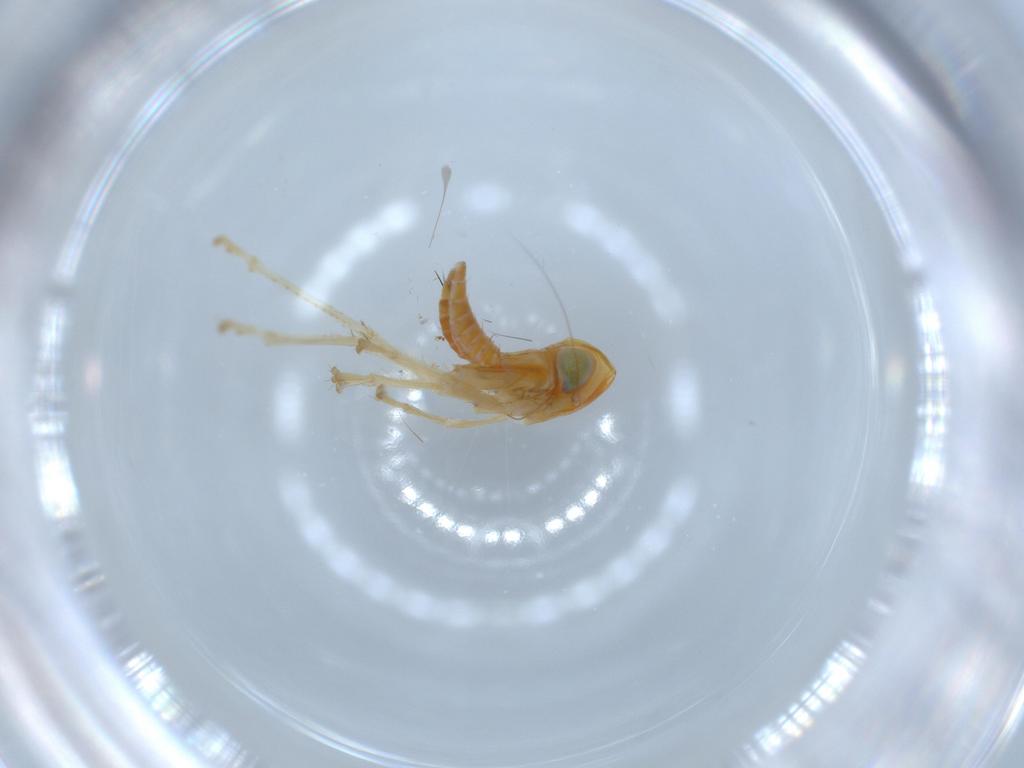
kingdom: Animalia
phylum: Arthropoda
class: Insecta
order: Hemiptera
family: Cicadellidae
